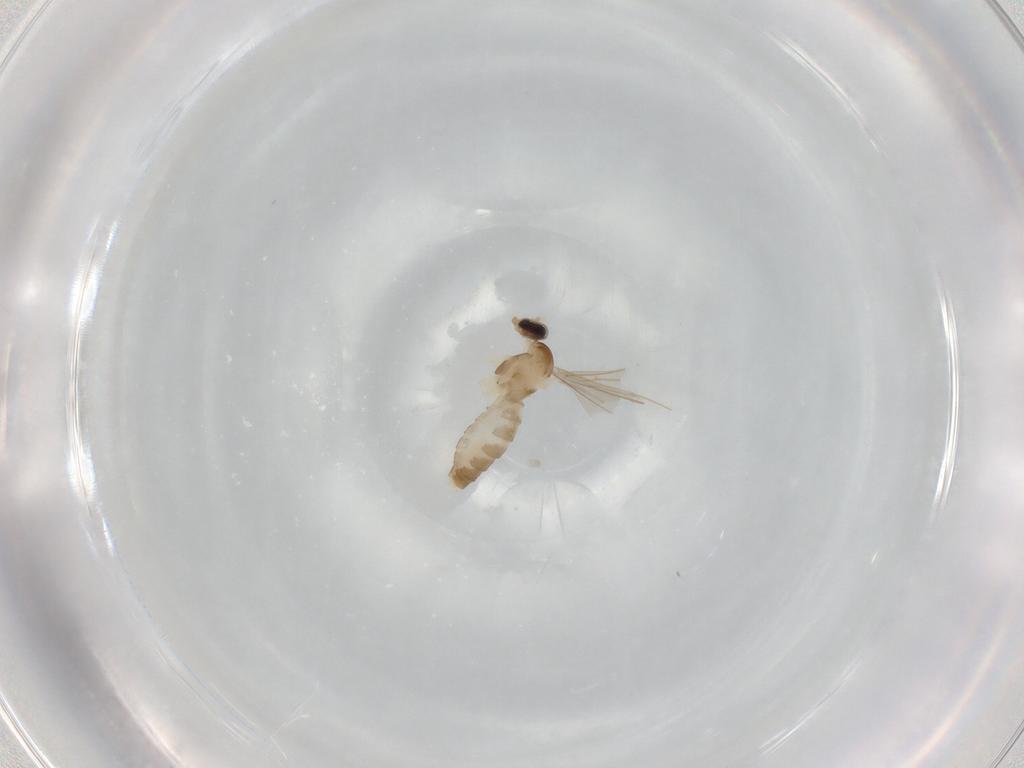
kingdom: Animalia
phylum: Arthropoda
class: Insecta
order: Diptera
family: Cecidomyiidae
